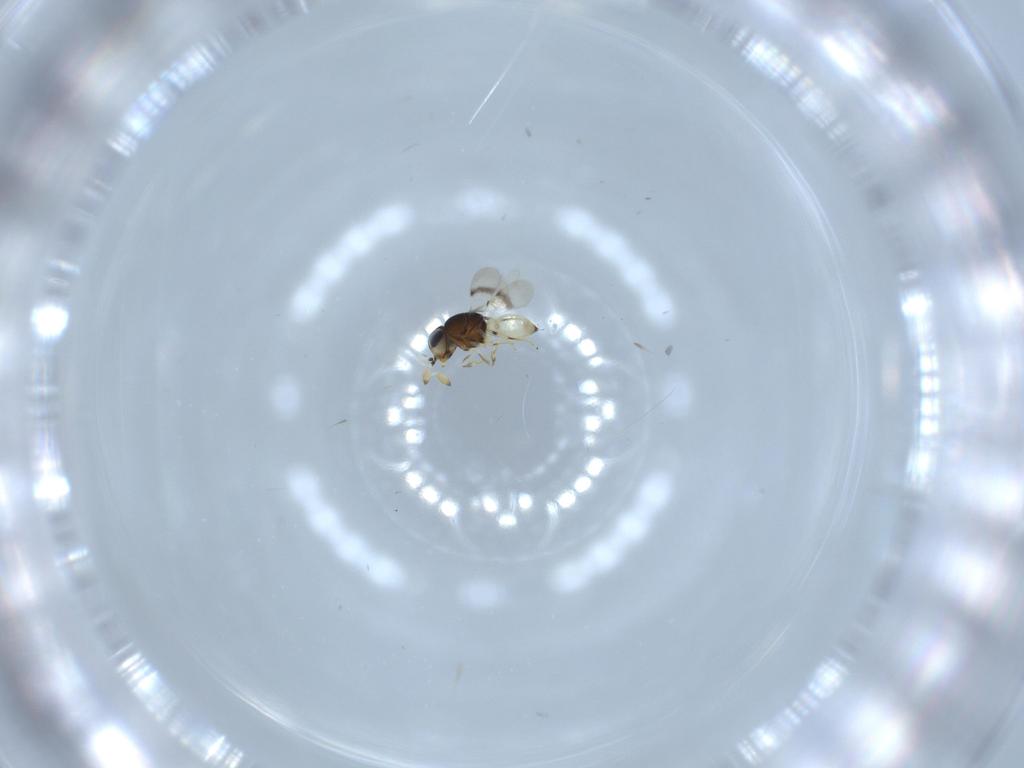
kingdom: Animalia
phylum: Arthropoda
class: Insecta
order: Hymenoptera
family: Scelionidae
